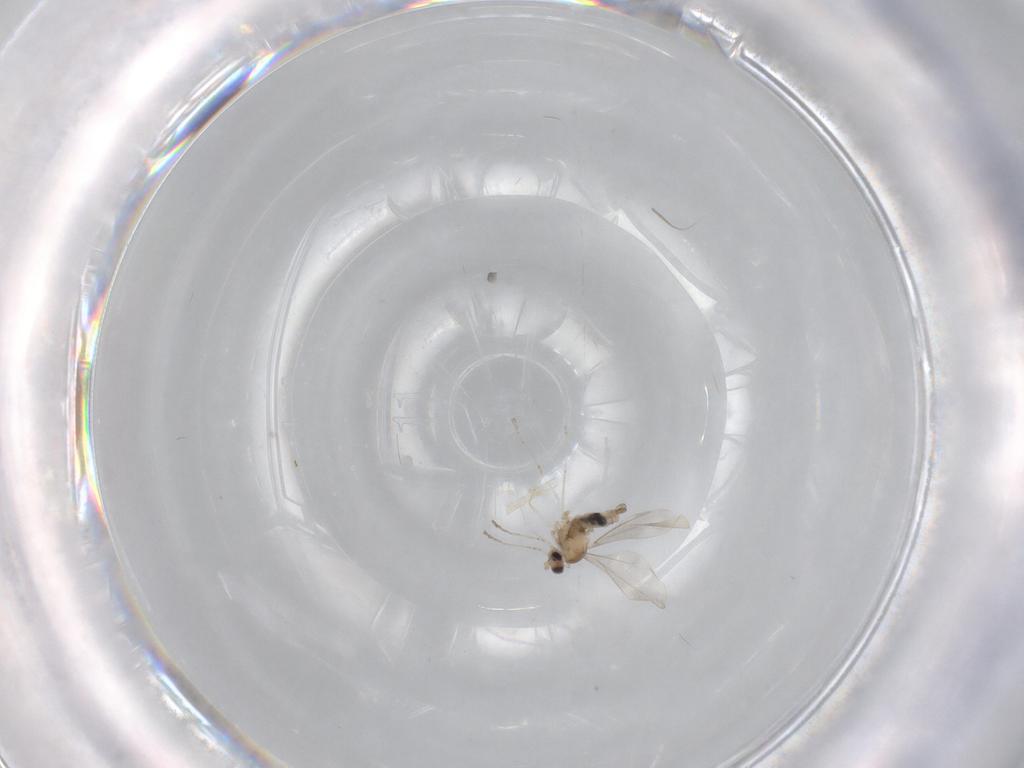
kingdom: Animalia
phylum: Arthropoda
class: Insecta
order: Diptera
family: Cecidomyiidae
